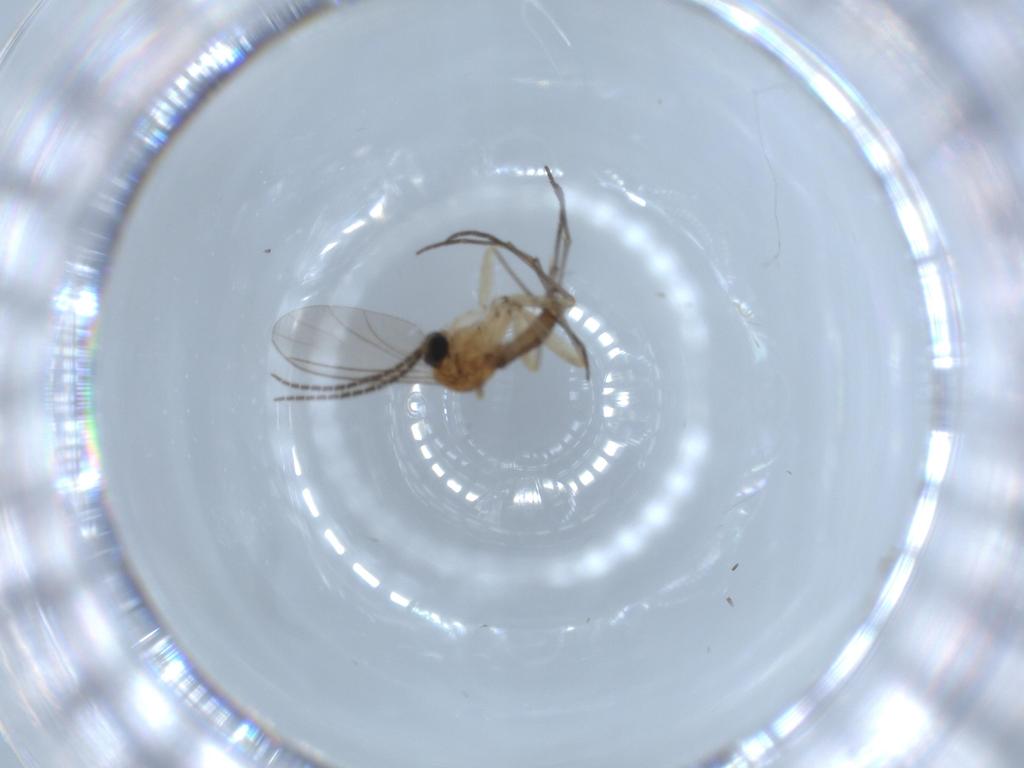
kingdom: Animalia
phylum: Arthropoda
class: Insecta
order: Diptera
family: Sciaridae
